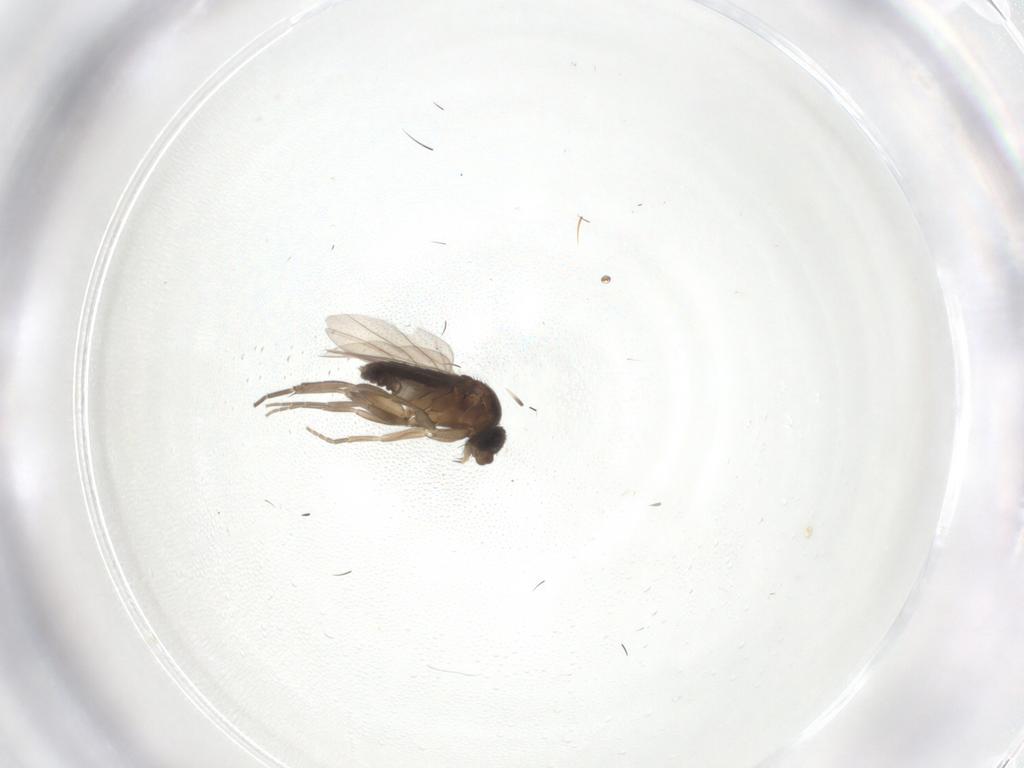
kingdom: Animalia
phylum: Arthropoda
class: Insecta
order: Diptera
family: Phoridae
